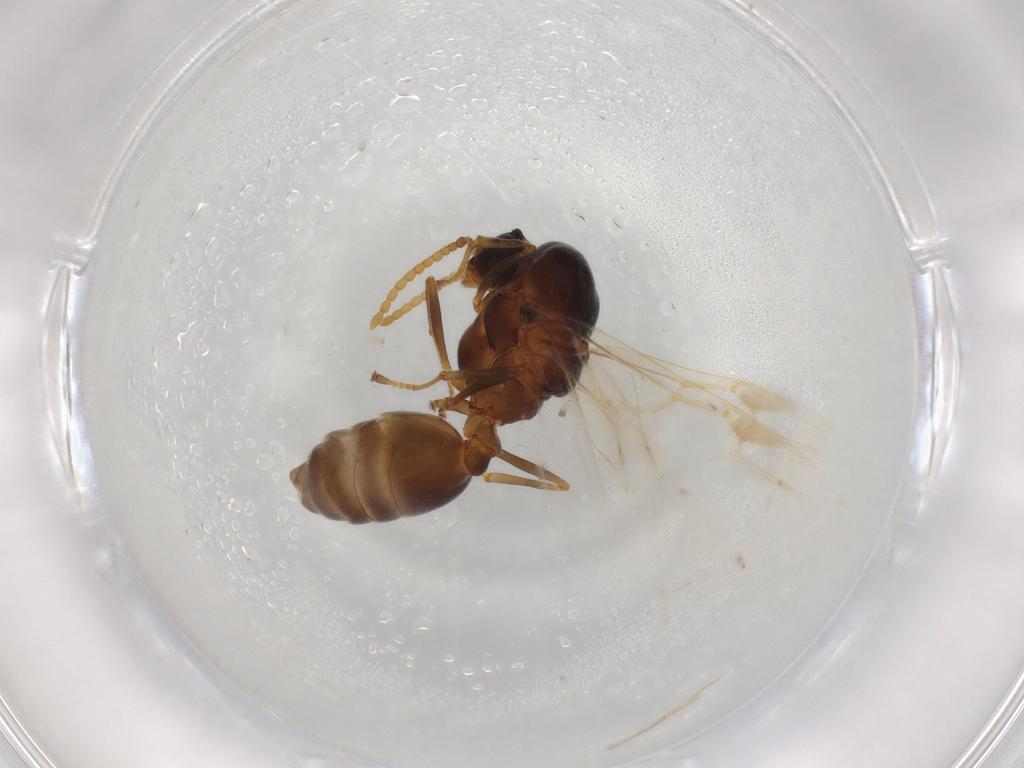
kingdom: Animalia
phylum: Arthropoda
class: Insecta
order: Hymenoptera
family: Formicidae
